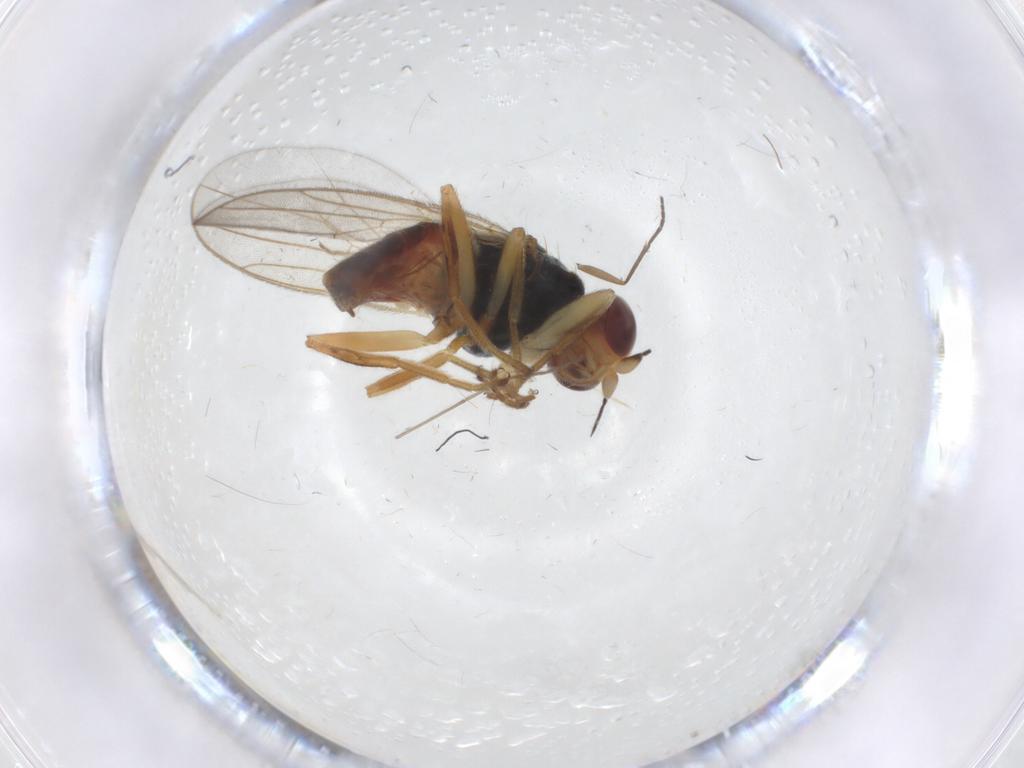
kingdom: Animalia
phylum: Arthropoda
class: Insecta
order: Diptera
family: Chloropidae
